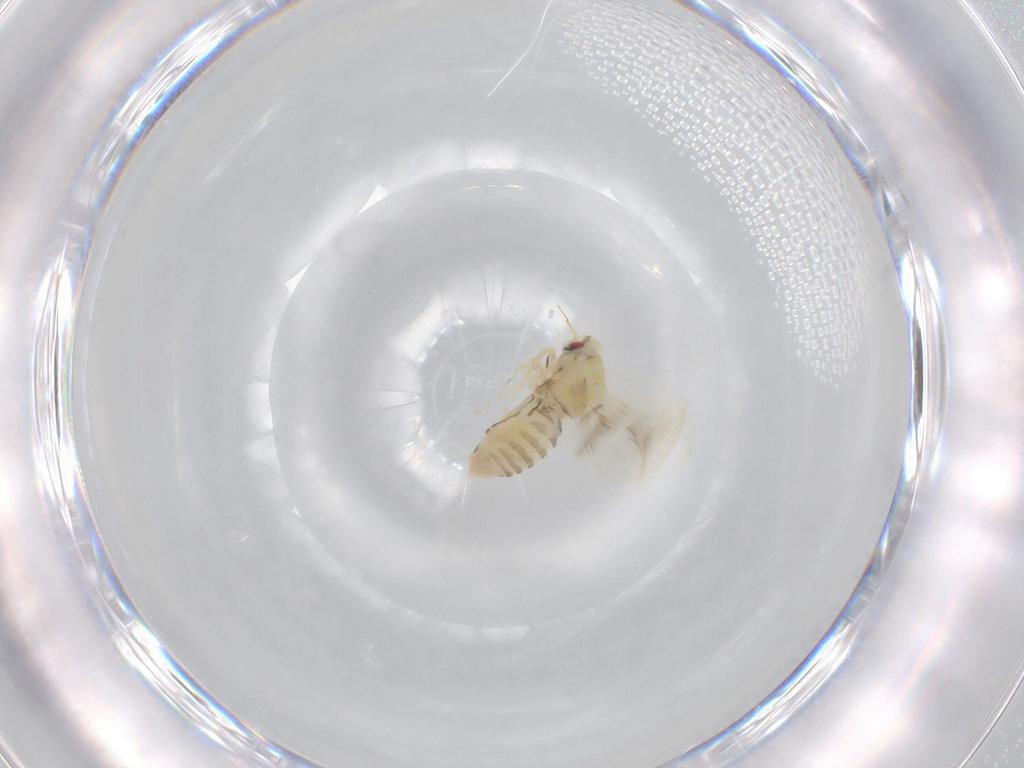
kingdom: Animalia
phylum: Arthropoda
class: Insecta
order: Hemiptera
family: Aleyrodidae
